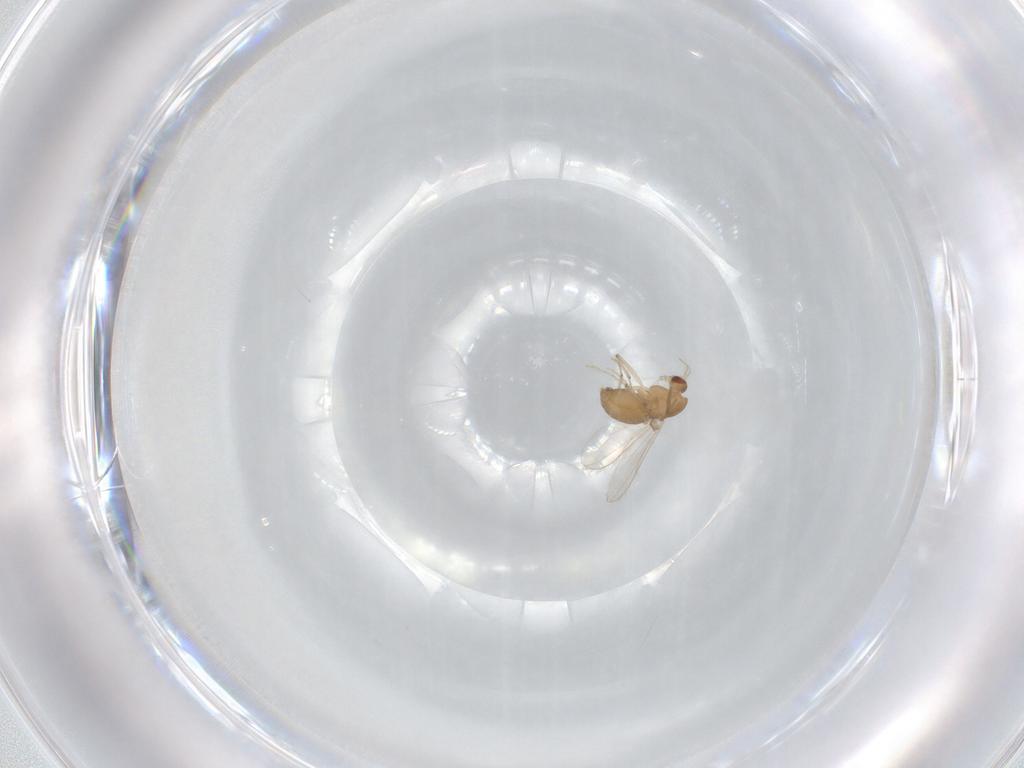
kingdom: Animalia
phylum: Arthropoda
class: Insecta
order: Diptera
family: Chironomidae
